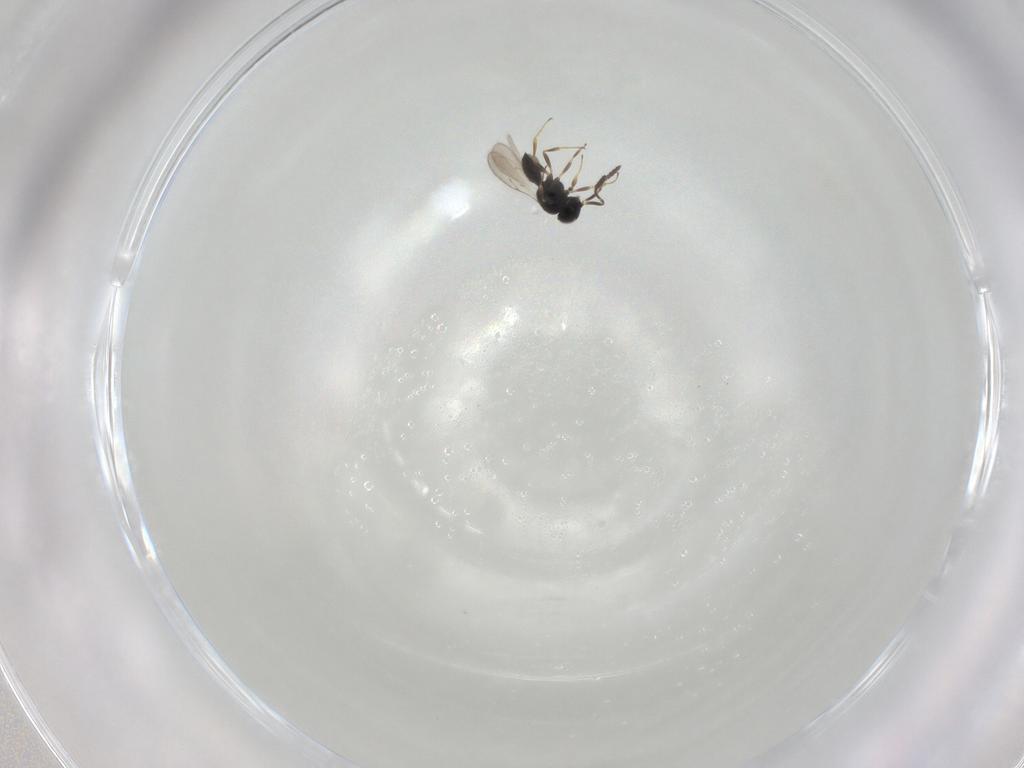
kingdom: Animalia
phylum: Arthropoda
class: Insecta
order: Hymenoptera
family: Scelionidae
